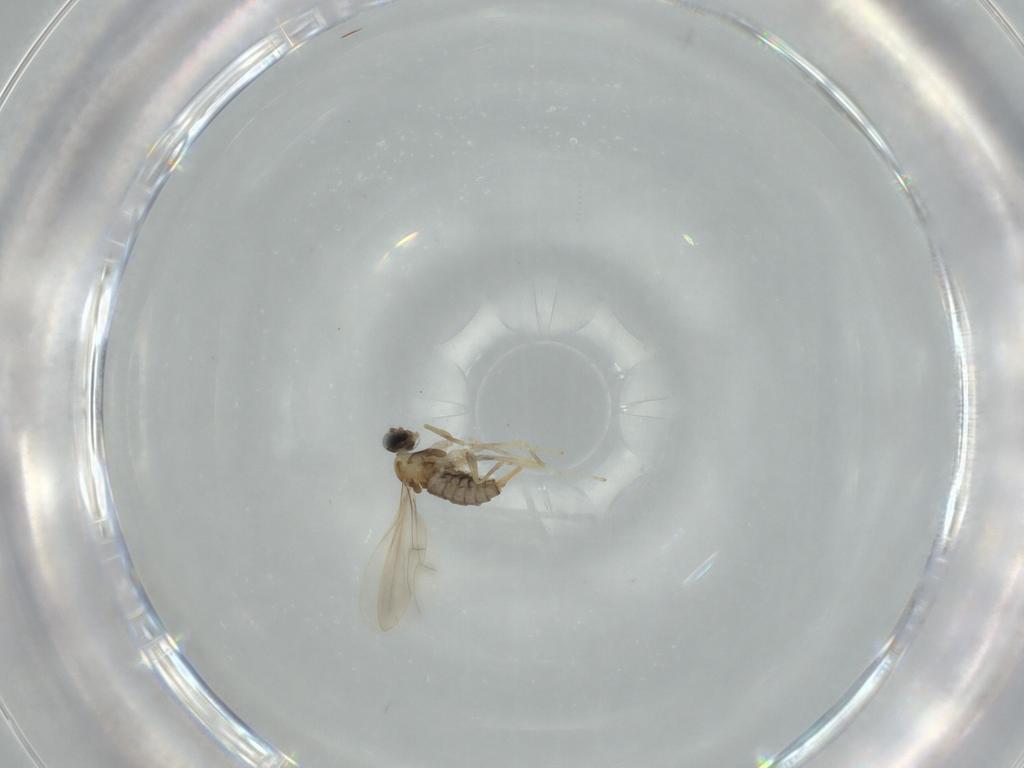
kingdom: Animalia
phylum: Arthropoda
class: Insecta
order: Diptera
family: Cecidomyiidae
